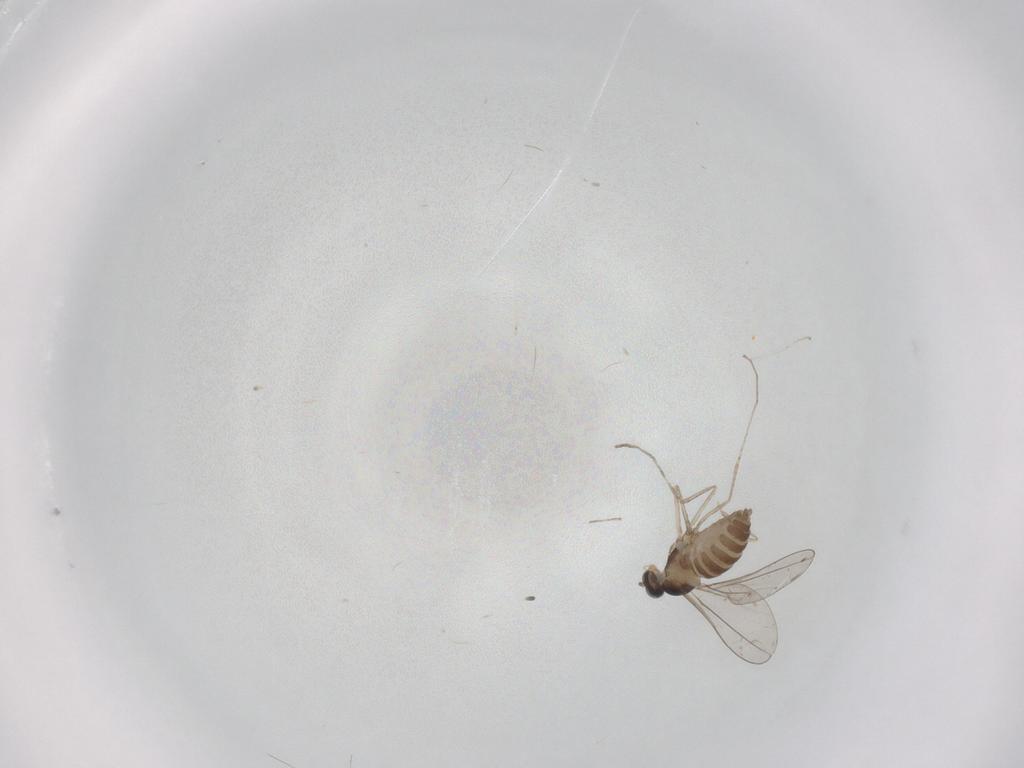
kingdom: Animalia
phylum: Arthropoda
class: Insecta
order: Diptera
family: Cecidomyiidae
